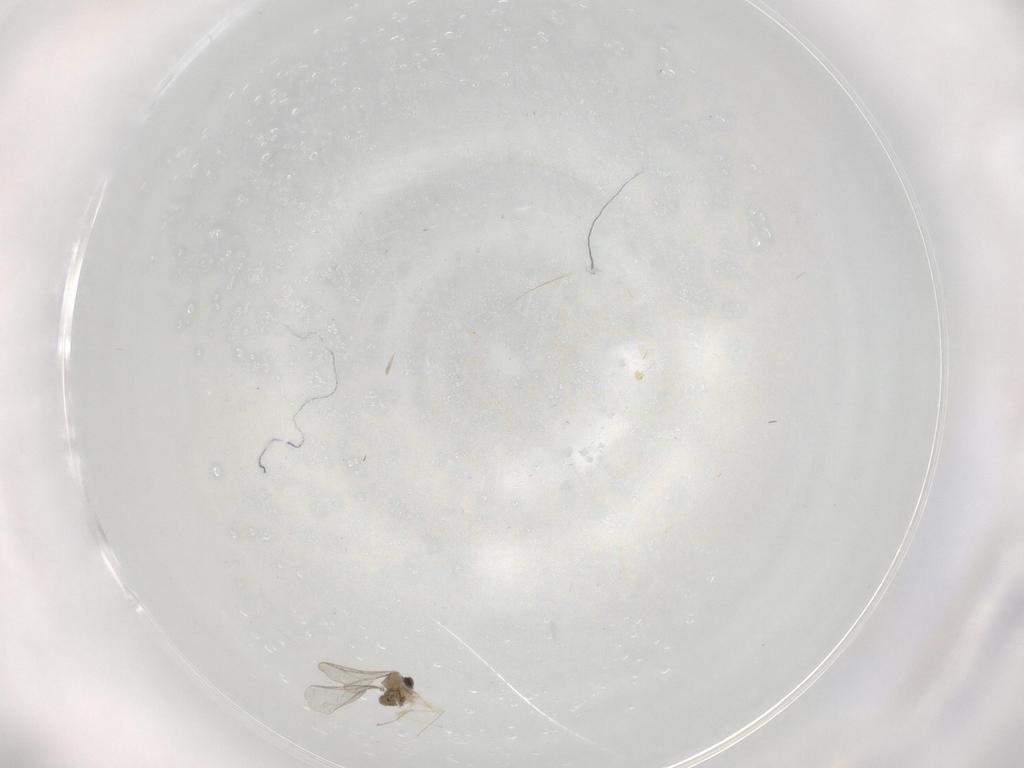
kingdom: Animalia
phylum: Arthropoda
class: Insecta
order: Diptera
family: Cecidomyiidae
